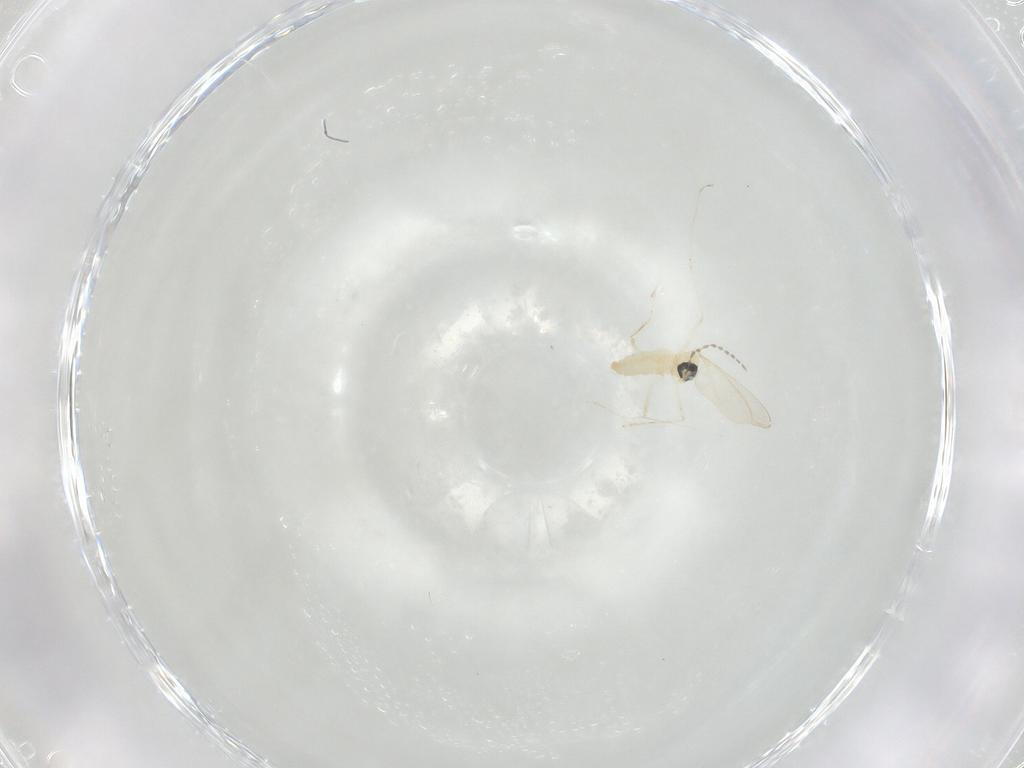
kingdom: Animalia
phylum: Arthropoda
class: Insecta
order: Diptera
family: Cecidomyiidae
